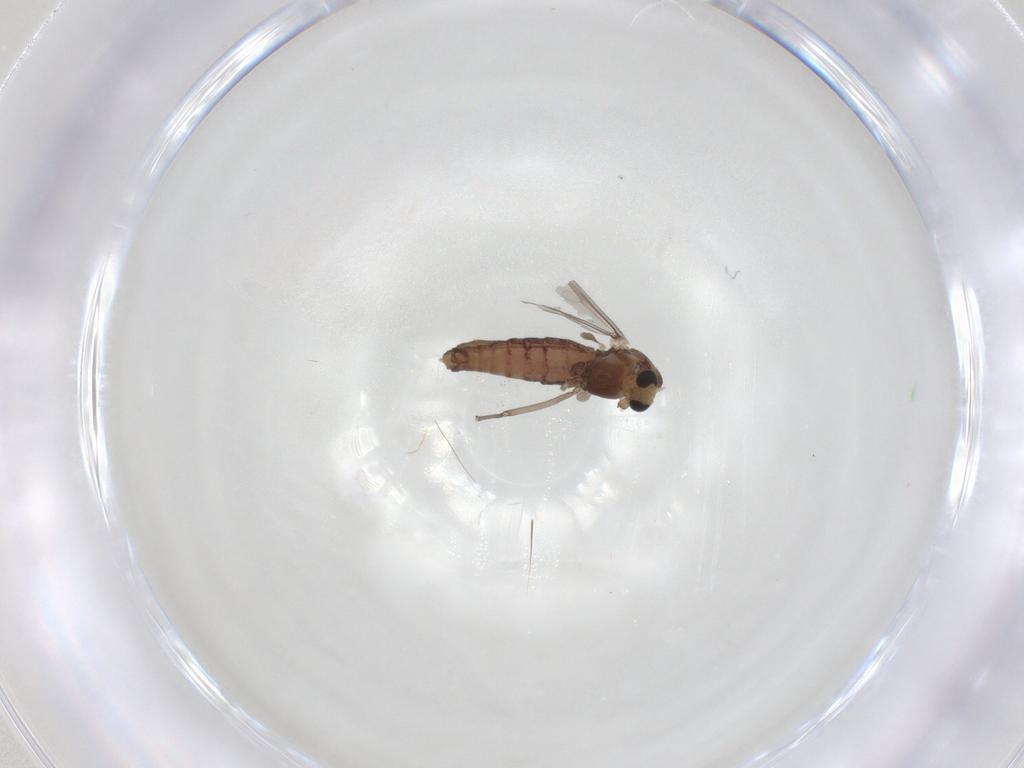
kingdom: Animalia
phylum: Arthropoda
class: Insecta
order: Diptera
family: Chironomidae
